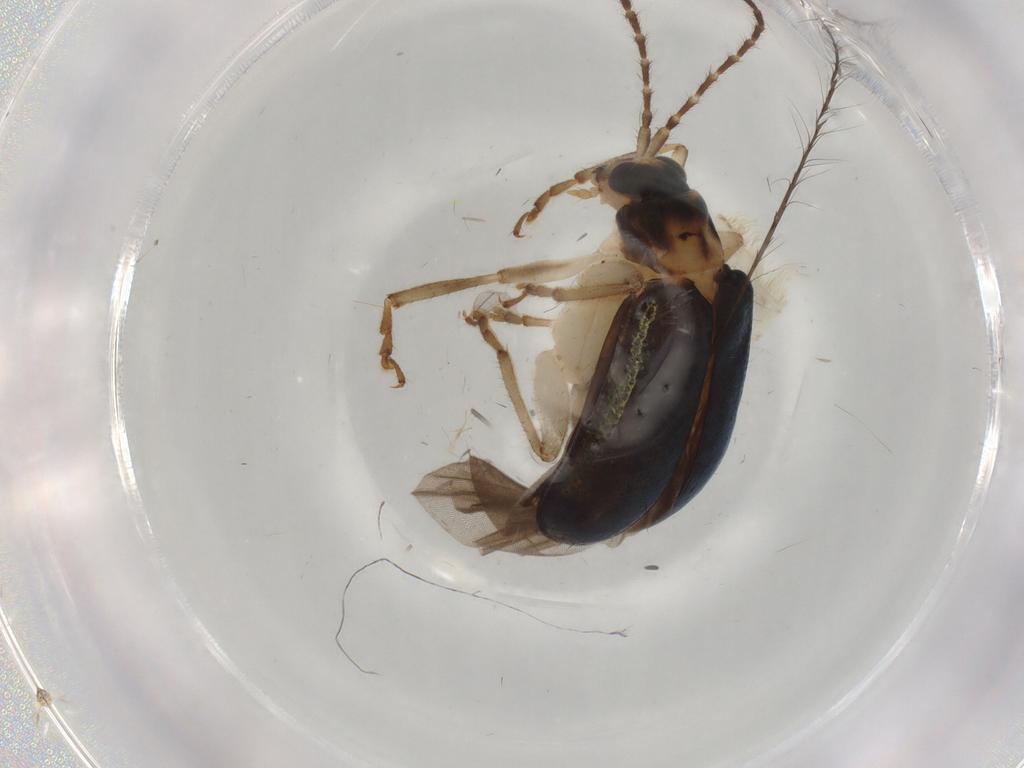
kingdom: Animalia
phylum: Arthropoda
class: Insecta
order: Coleoptera
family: Chrysomelidae
